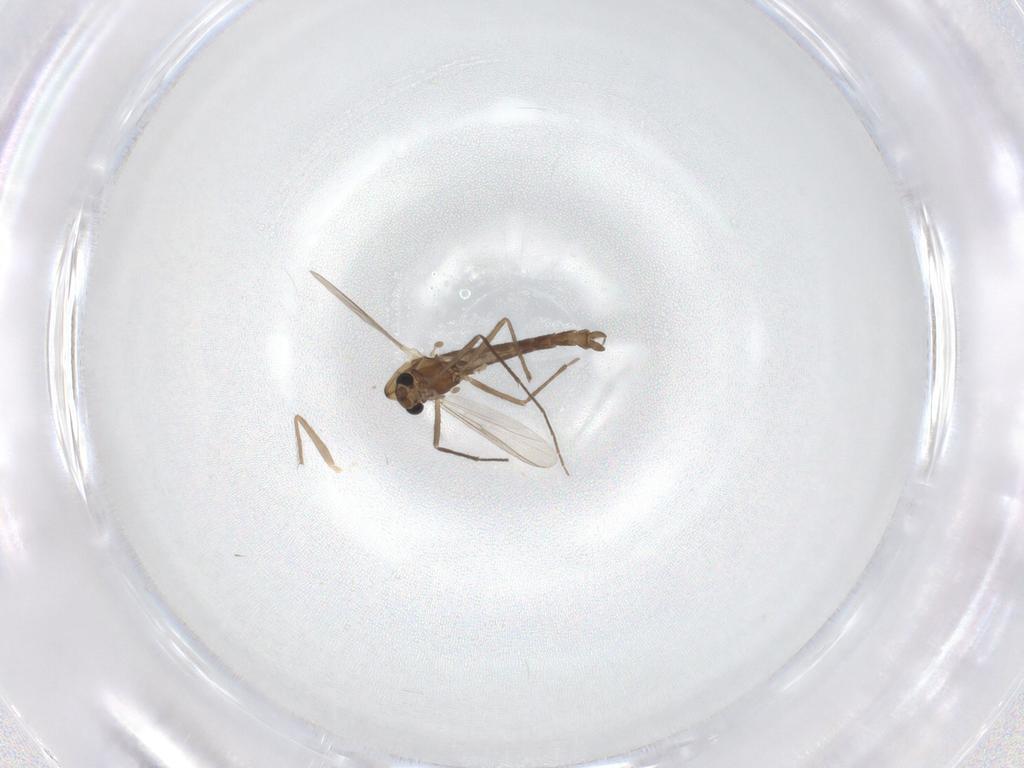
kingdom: Animalia
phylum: Arthropoda
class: Insecta
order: Diptera
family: Chironomidae
